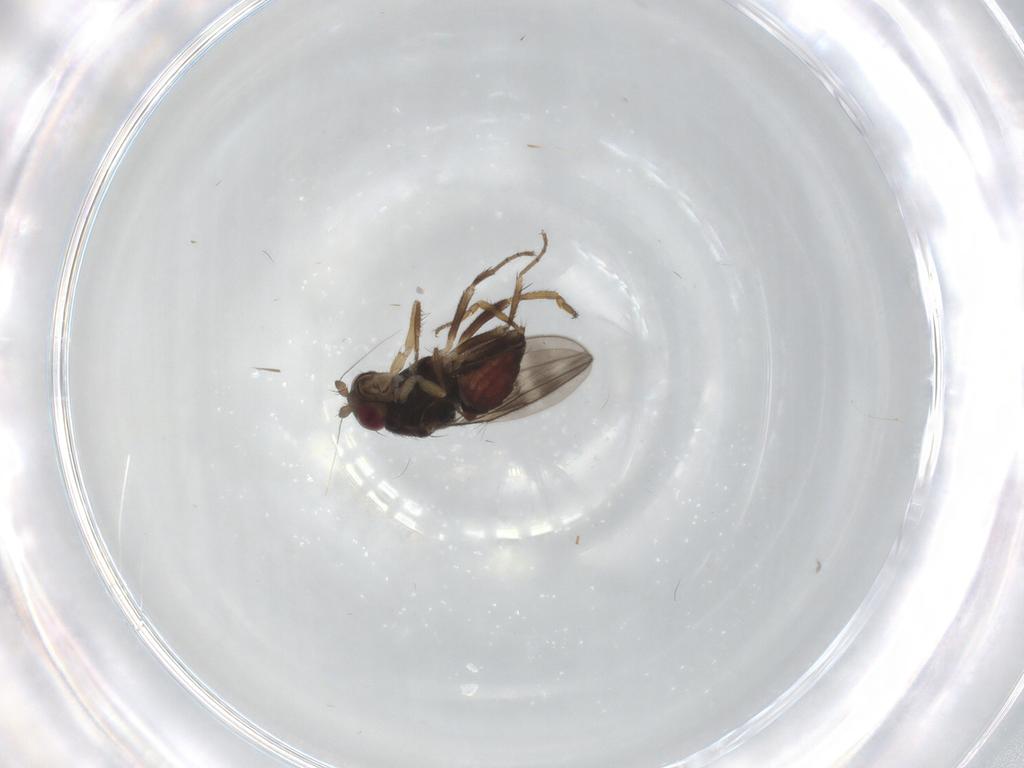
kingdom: Animalia
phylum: Arthropoda
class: Insecta
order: Diptera
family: Sphaeroceridae
